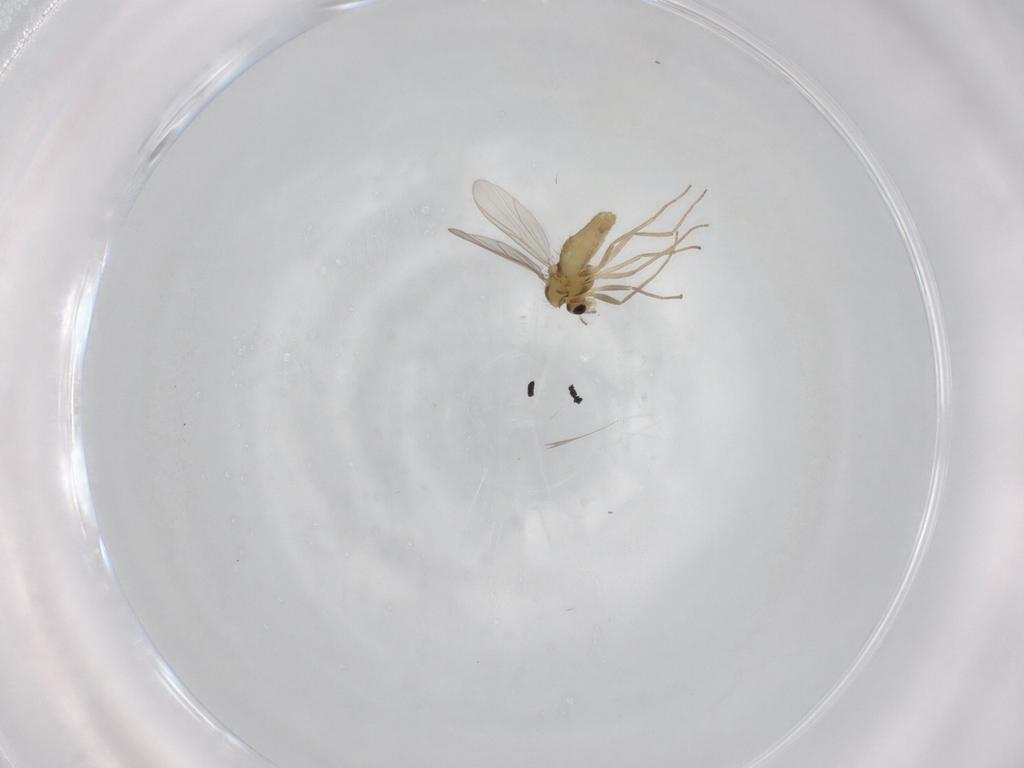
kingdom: Animalia
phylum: Arthropoda
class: Insecta
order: Diptera
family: Chironomidae
